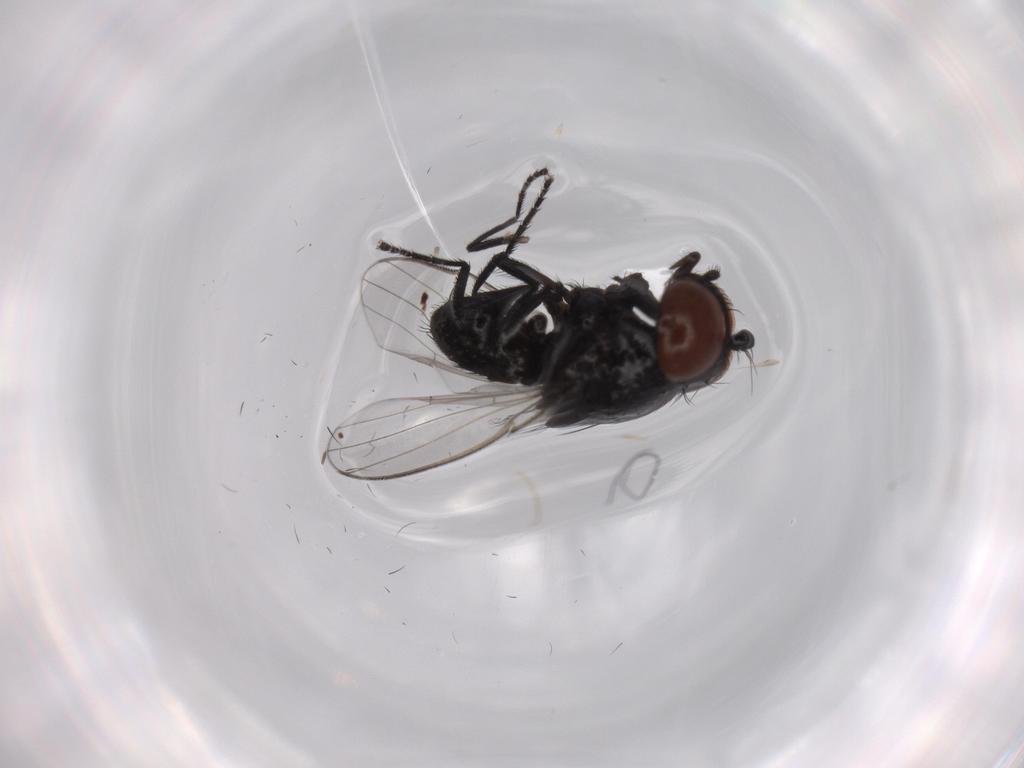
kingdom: Animalia
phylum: Arthropoda
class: Insecta
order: Diptera
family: Milichiidae
